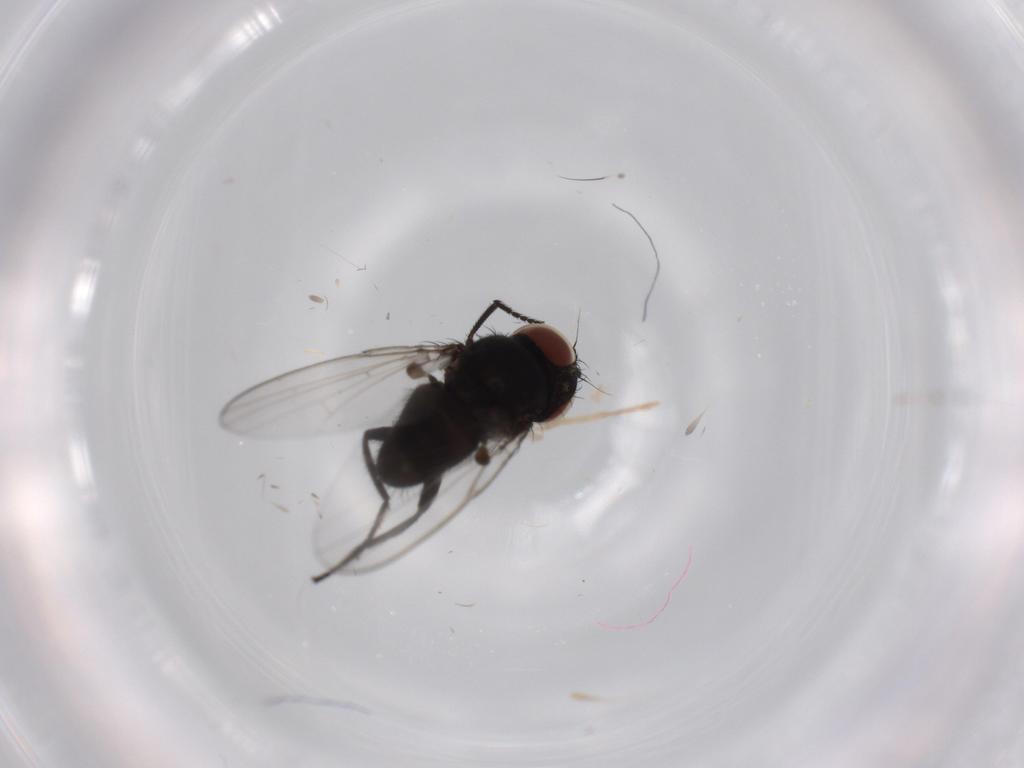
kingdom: Animalia
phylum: Arthropoda
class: Insecta
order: Diptera
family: Milichiidae
